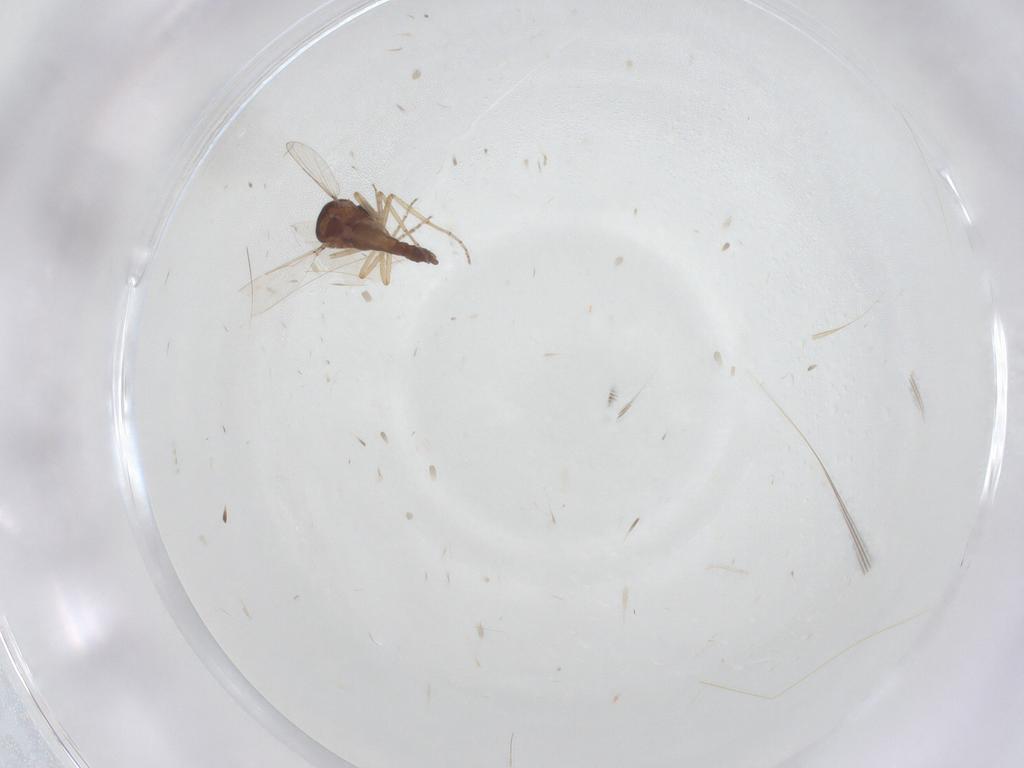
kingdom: Animalia
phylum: Arthropoda
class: Insecta
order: Diptera
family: Ceratopogonidae
